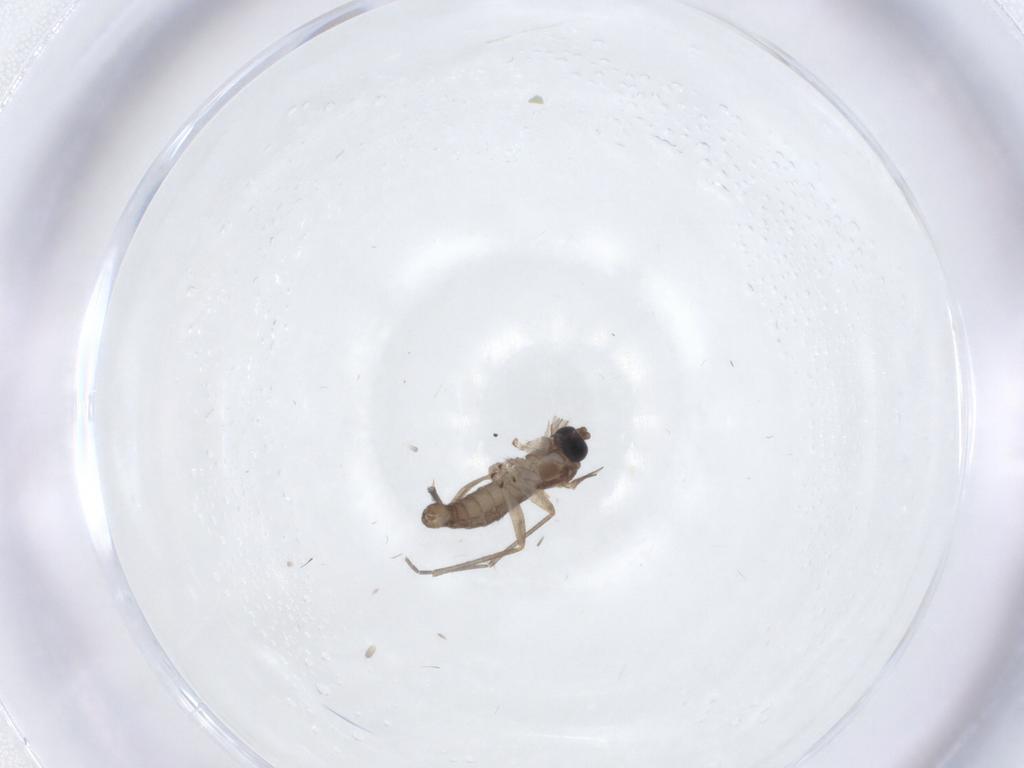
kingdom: Animalia
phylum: Arthropoda
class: Insecta
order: Diptera
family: Sciaridae
